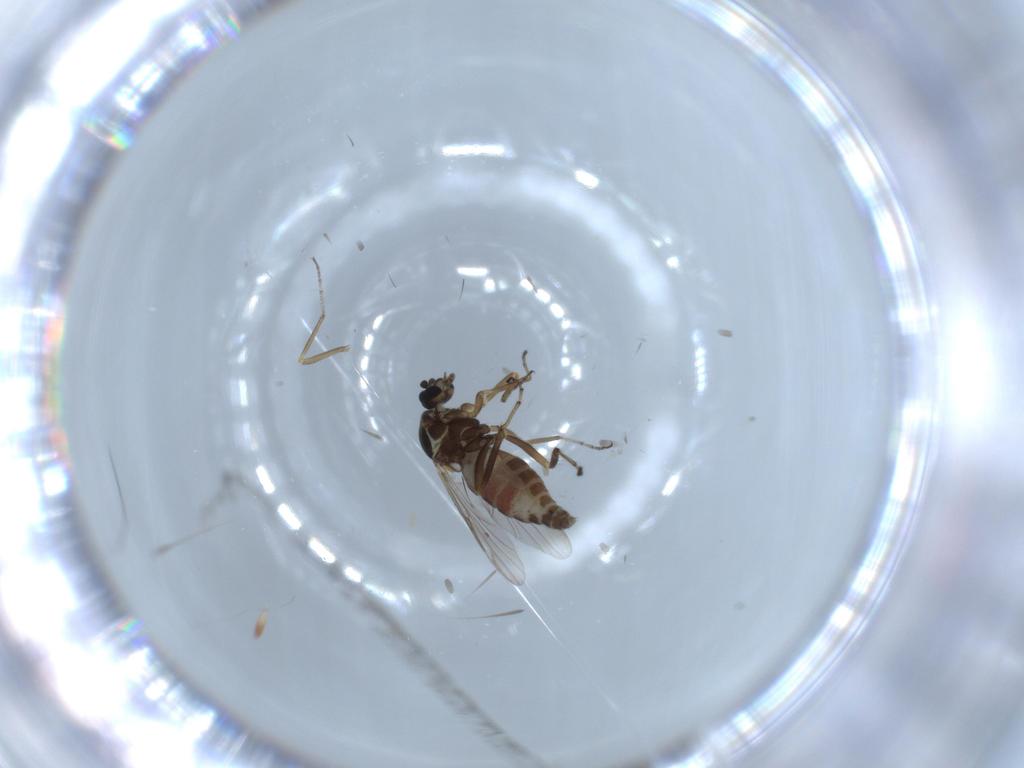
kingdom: Animalia
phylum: Arthropoda
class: Insecta
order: Diptera
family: Ceratopogonidae
